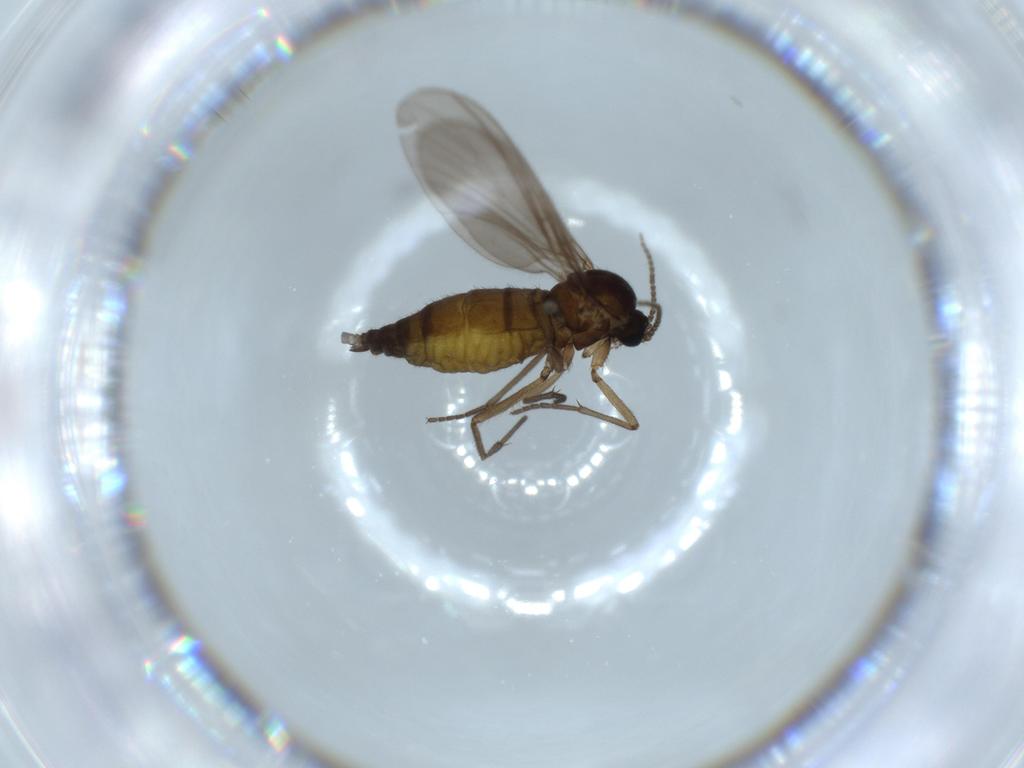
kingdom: Animalia
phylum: Arthropoda
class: Insecta
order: Diptera
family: Sciaridae
